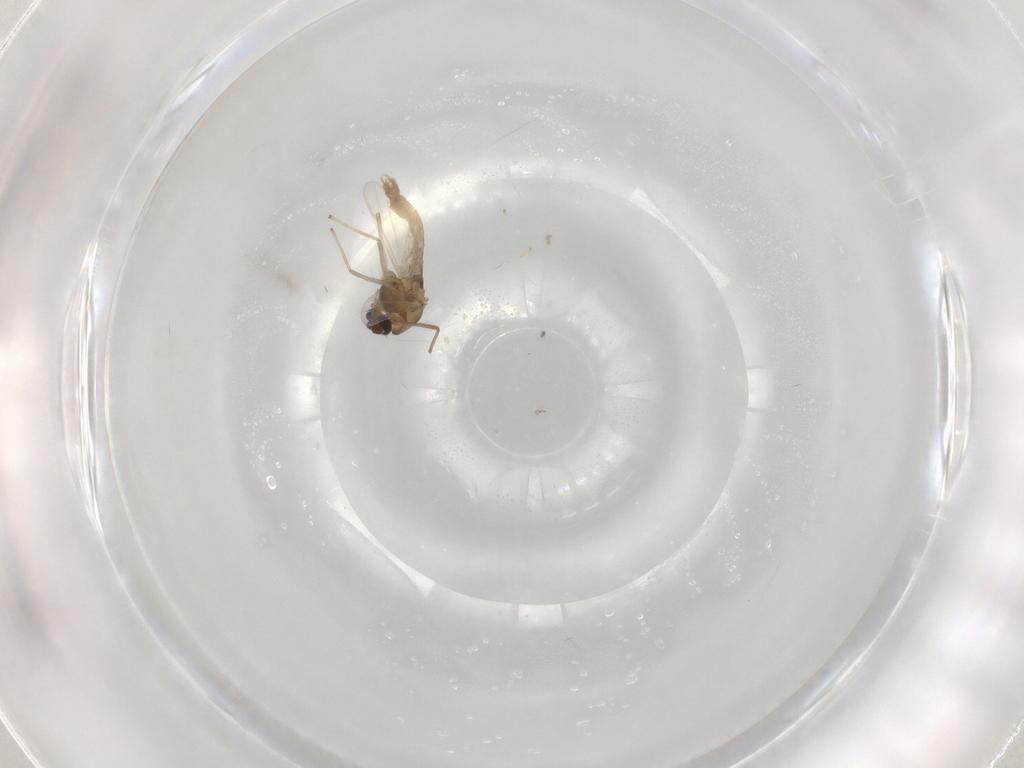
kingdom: Animalia
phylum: Arthropoda
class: Insecta
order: Diptera
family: Chironomidae
